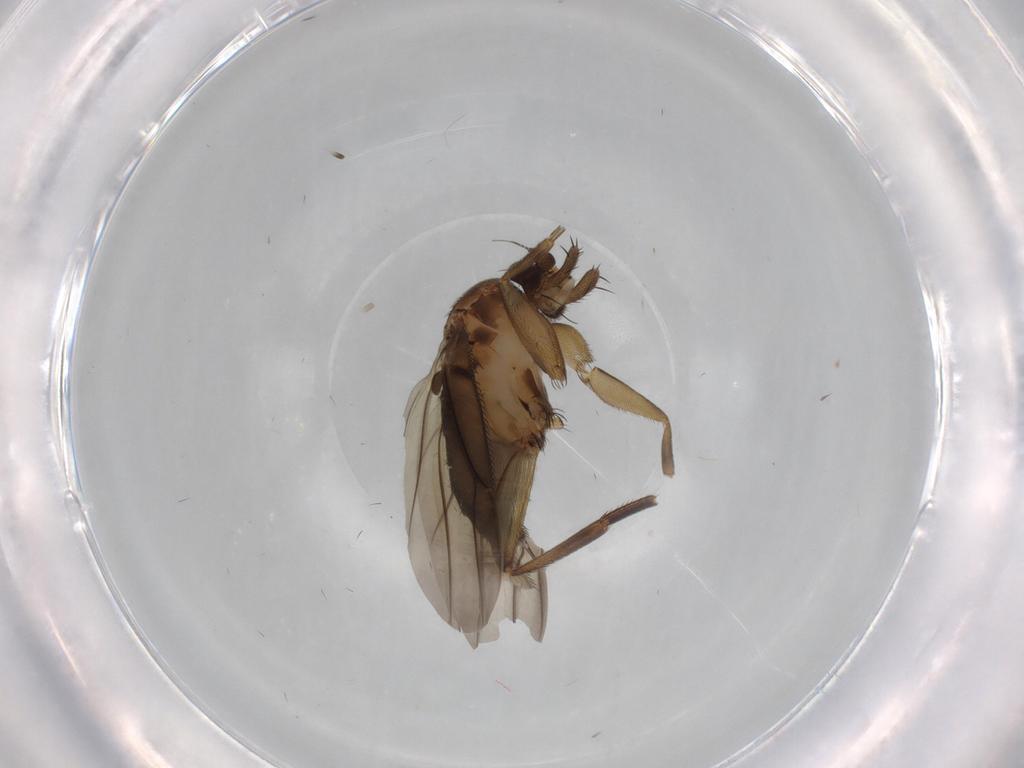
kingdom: Animalia
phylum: Arthropoda
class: Insecta
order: Diptera
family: Phoridae
